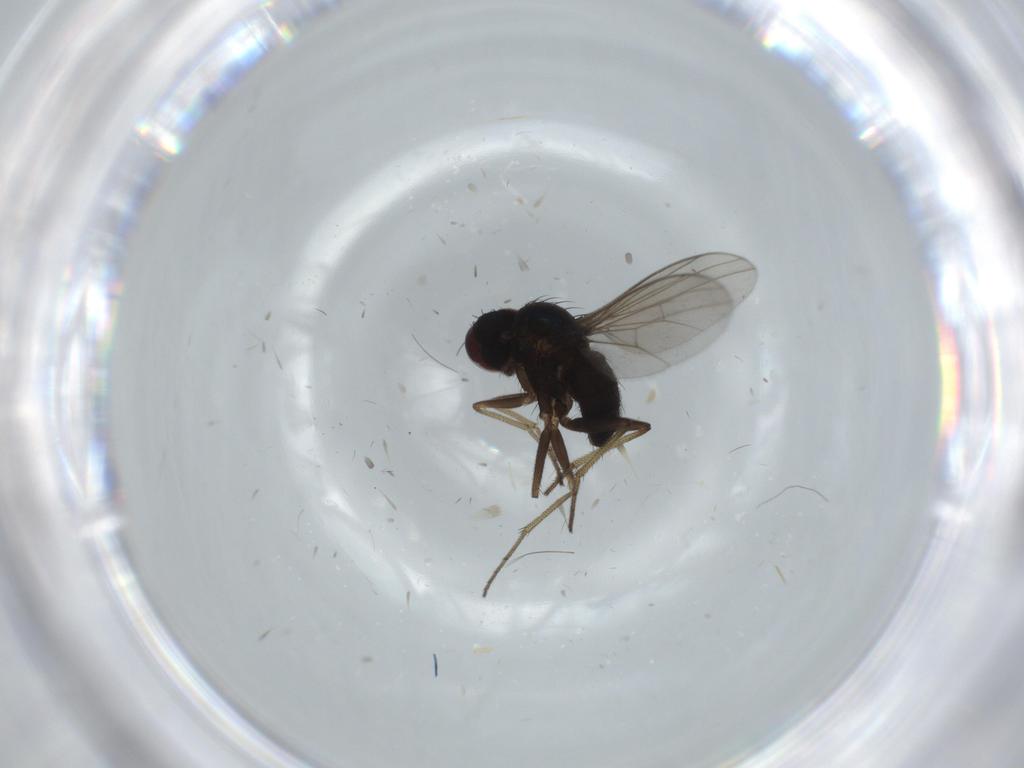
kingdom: Animalia
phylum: Arthropoda
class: Insecta
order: Diptera
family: Dolichopodidae
